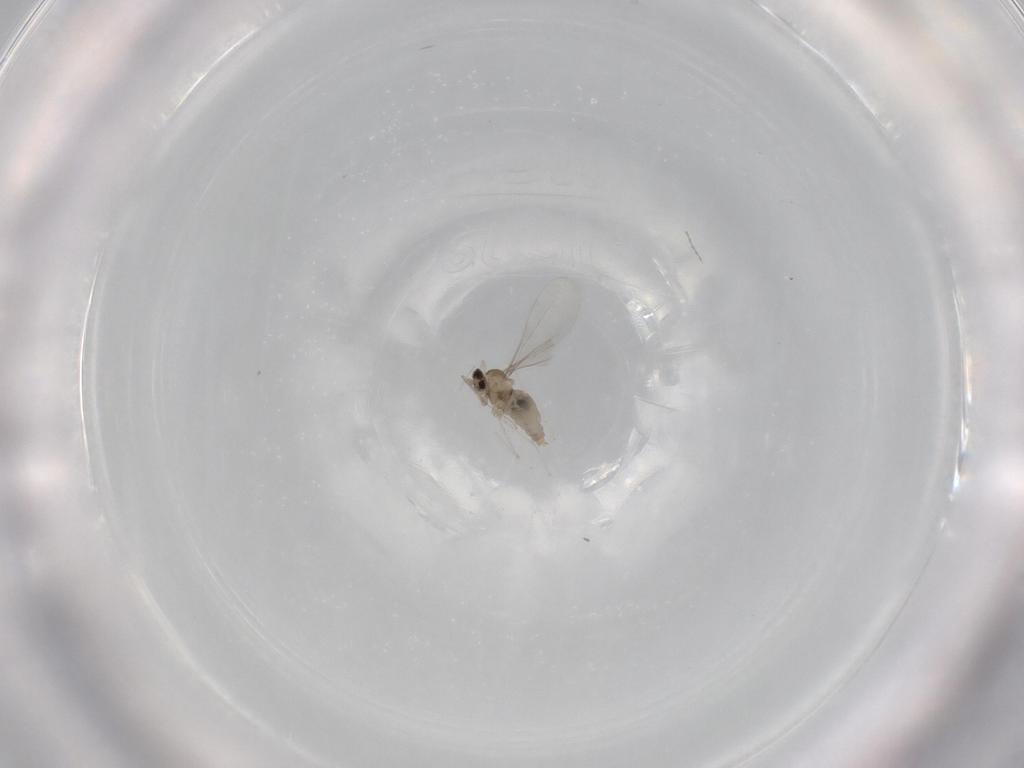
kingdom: Animalia
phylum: Arthropoda
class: Insecta
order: Diptera
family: Cecidomyiidae
